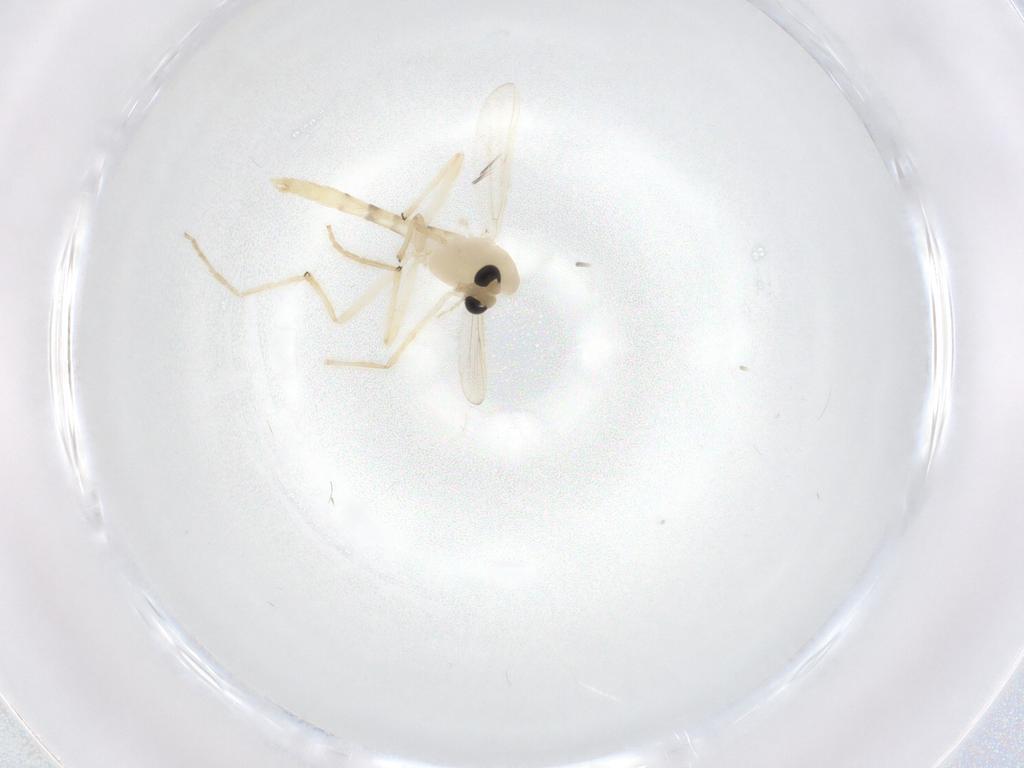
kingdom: Animalia
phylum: Arthropoda
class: Insecta
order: Diptera
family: Chironomidae
